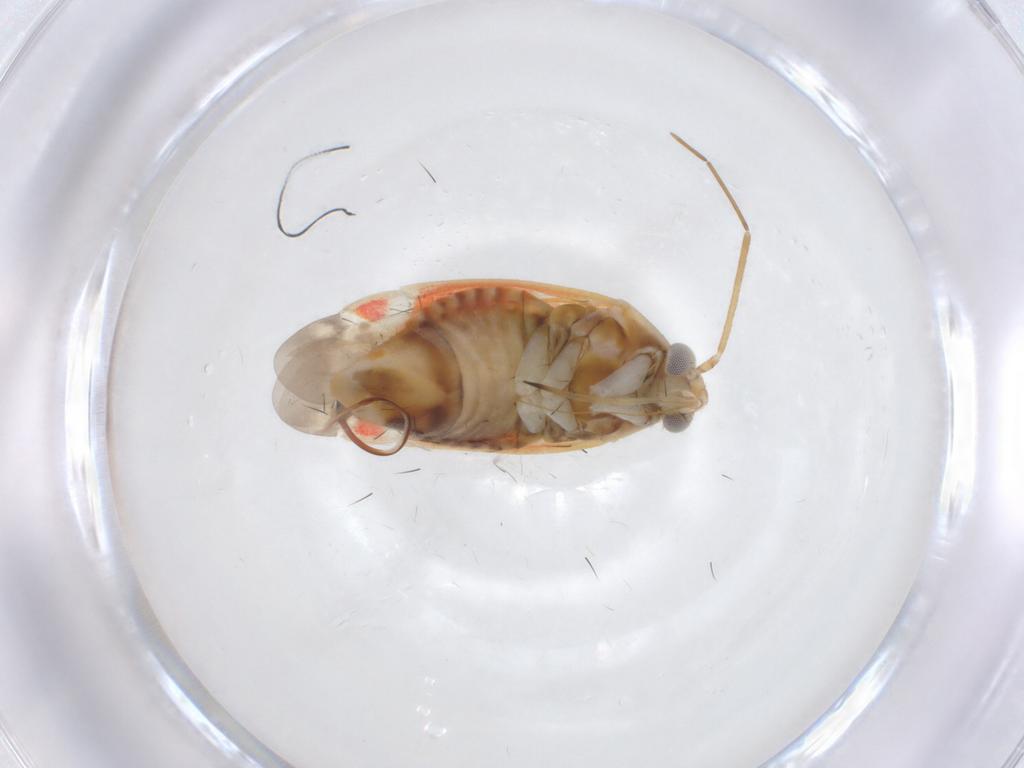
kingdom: Animalia
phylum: Arthropoda
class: Insecta
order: Hemiptera
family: Miridae
